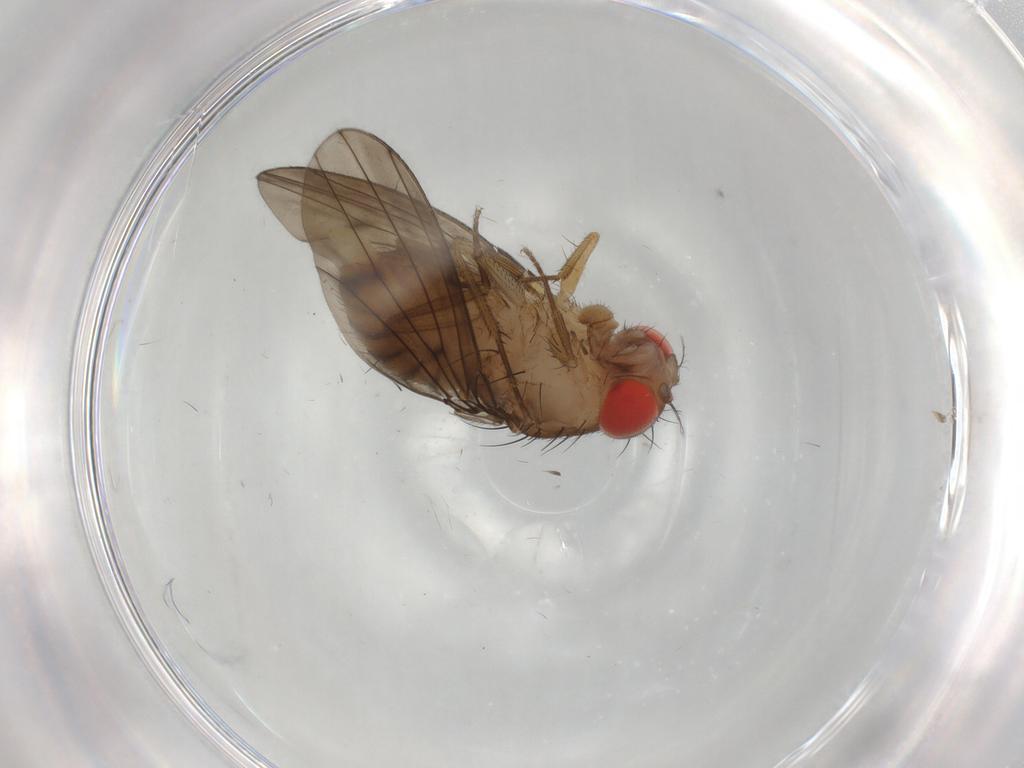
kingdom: Animalia
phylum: Arthropoda
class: Insecta
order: Diptera
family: Drosophilidae
